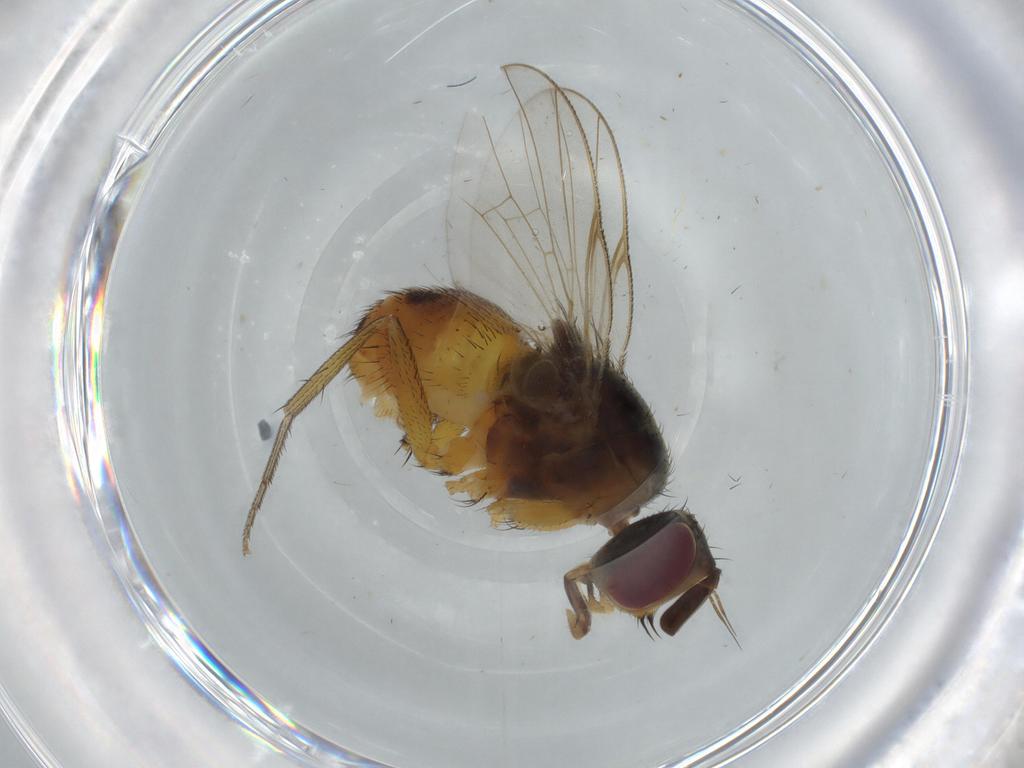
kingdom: Animalia
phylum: Arthropoda
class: Insecta
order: Diptera
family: Muscidae
